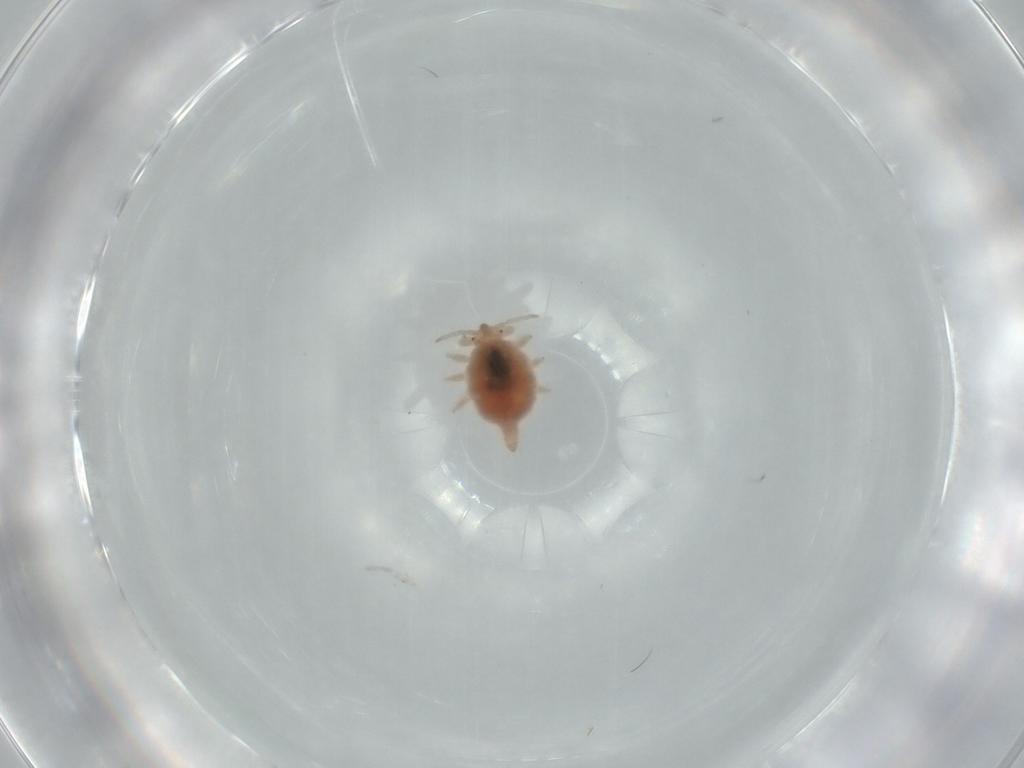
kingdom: Animalia
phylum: Arthropoda
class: Insecta
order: Neuroptera
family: Coniopterygidae
